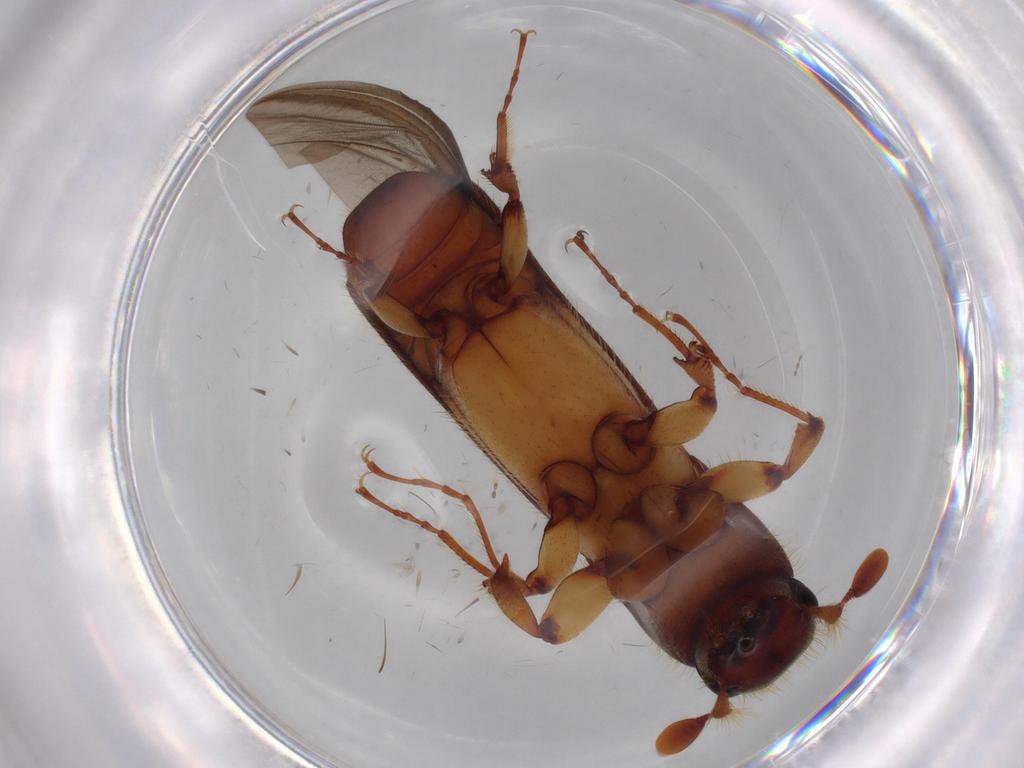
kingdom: Animalia
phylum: Arthropoda
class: Insecta
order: Coleoptera
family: Curculionidae
